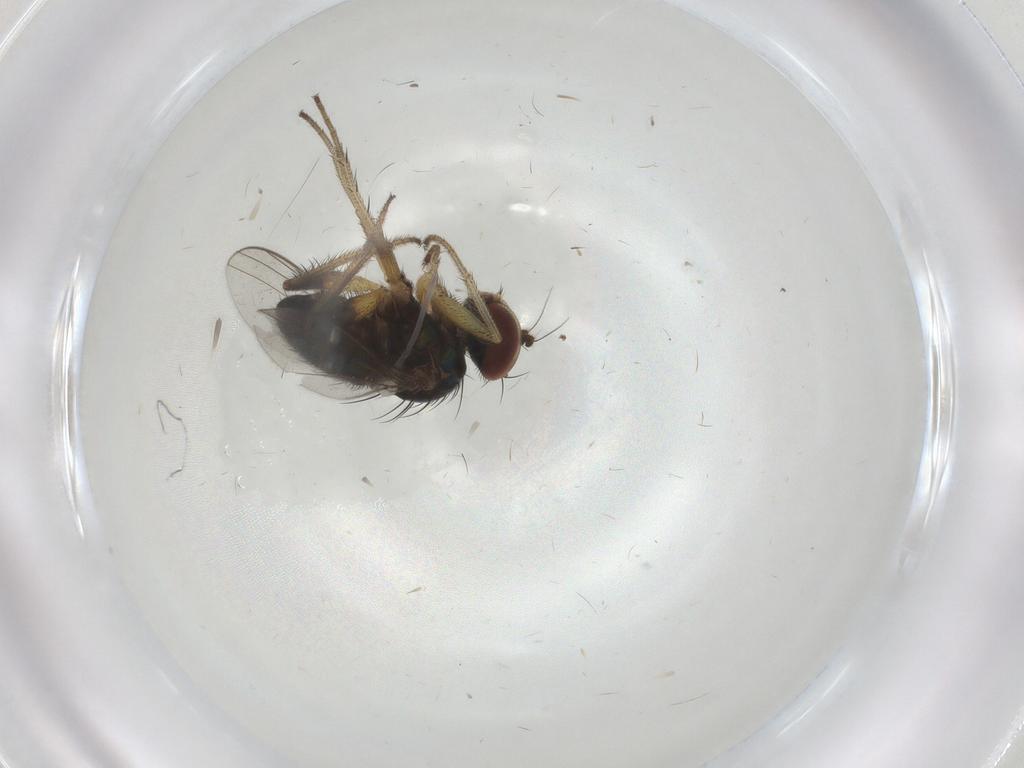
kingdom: Animalia
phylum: Arthropoda
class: Insecta
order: Diptera
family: Dolichopodidae
